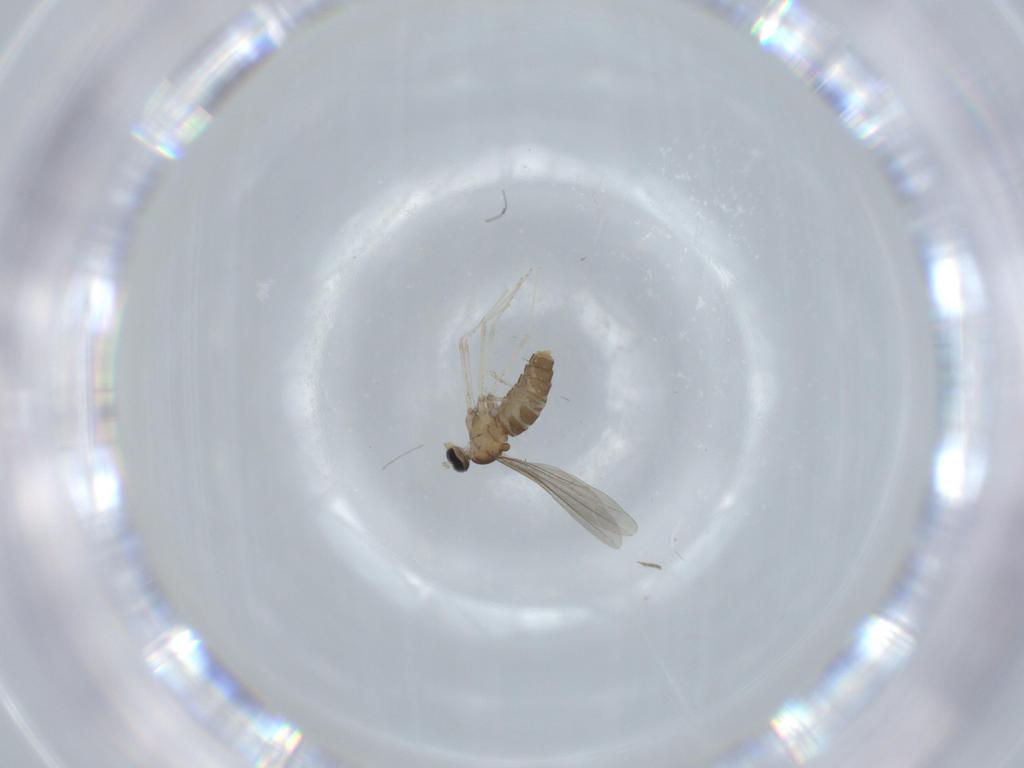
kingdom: Animalia
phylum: Arthropoda
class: Insecta
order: Diptera
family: Cecidomyiidae
